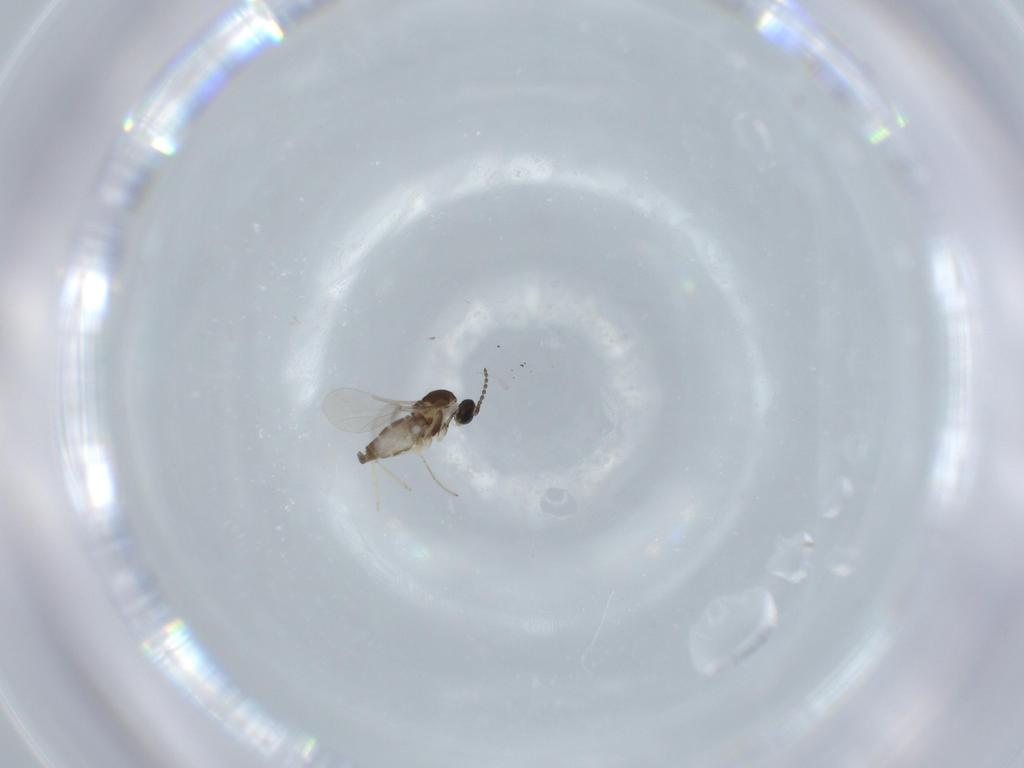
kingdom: Animalia
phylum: Arthropoda
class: Insecta
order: Diptera
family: Cecidomyiidae
